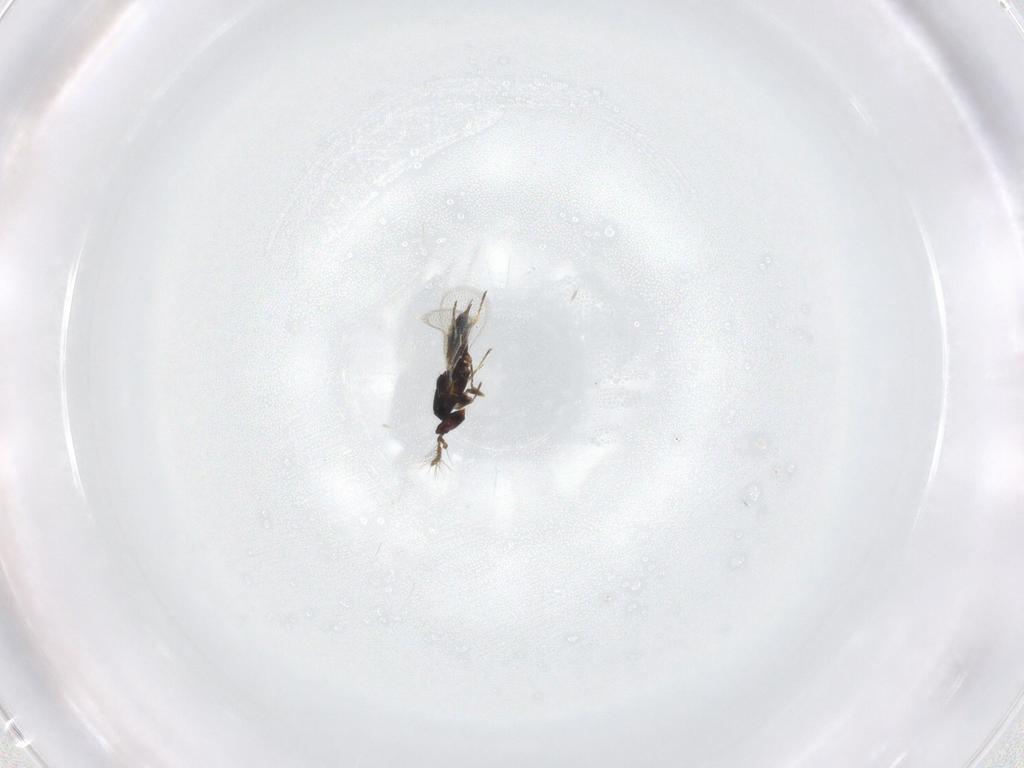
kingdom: Animalia
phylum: Arthropoda
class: Insecta
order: Hymenoptera
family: Eulophidae
